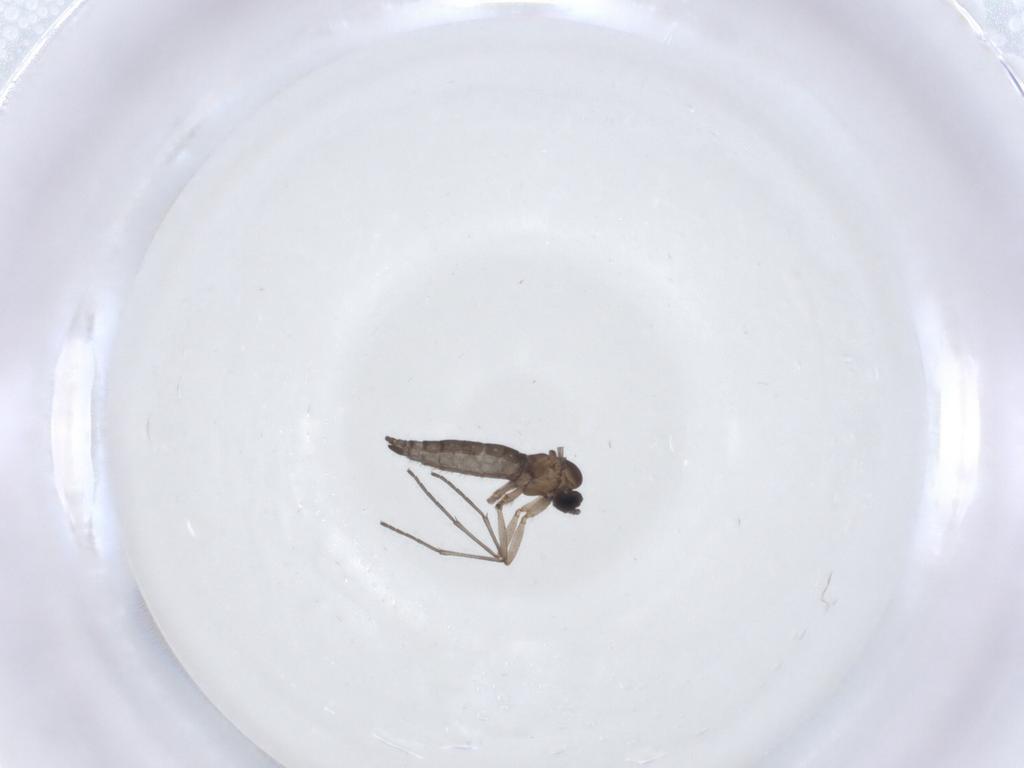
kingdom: Animalia
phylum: Arthropoda
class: Insecta
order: Diptera
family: Sciaridae
